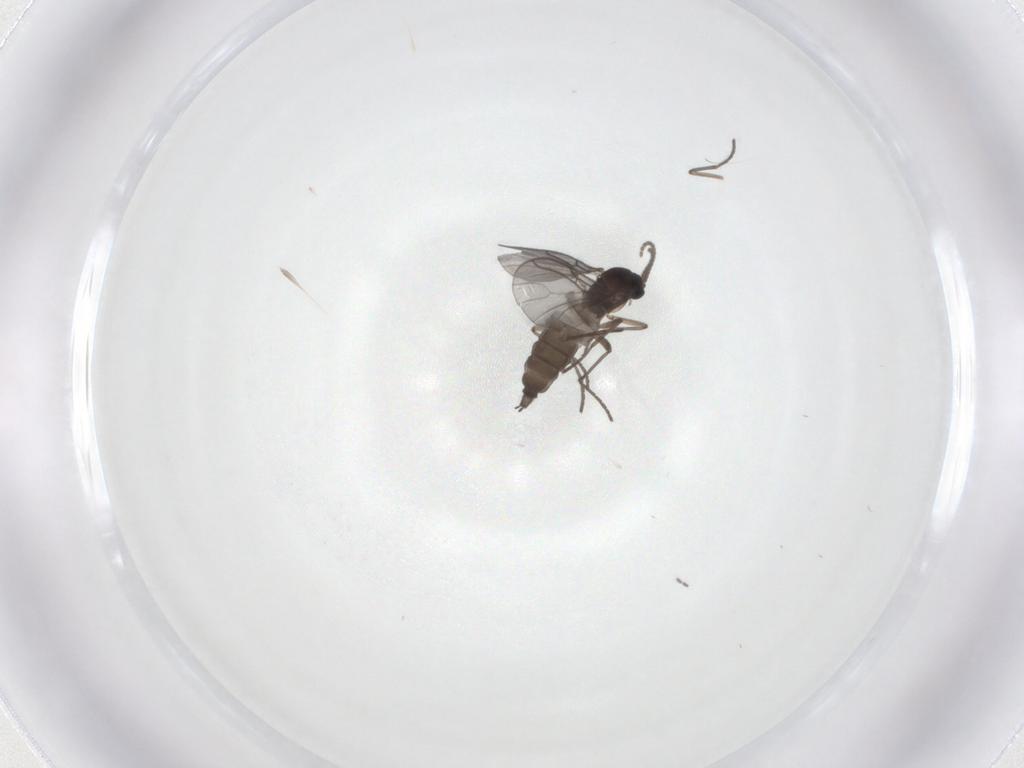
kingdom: Animalia
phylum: Arthropoda
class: Insecta
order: Diptera
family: Sciaridae
